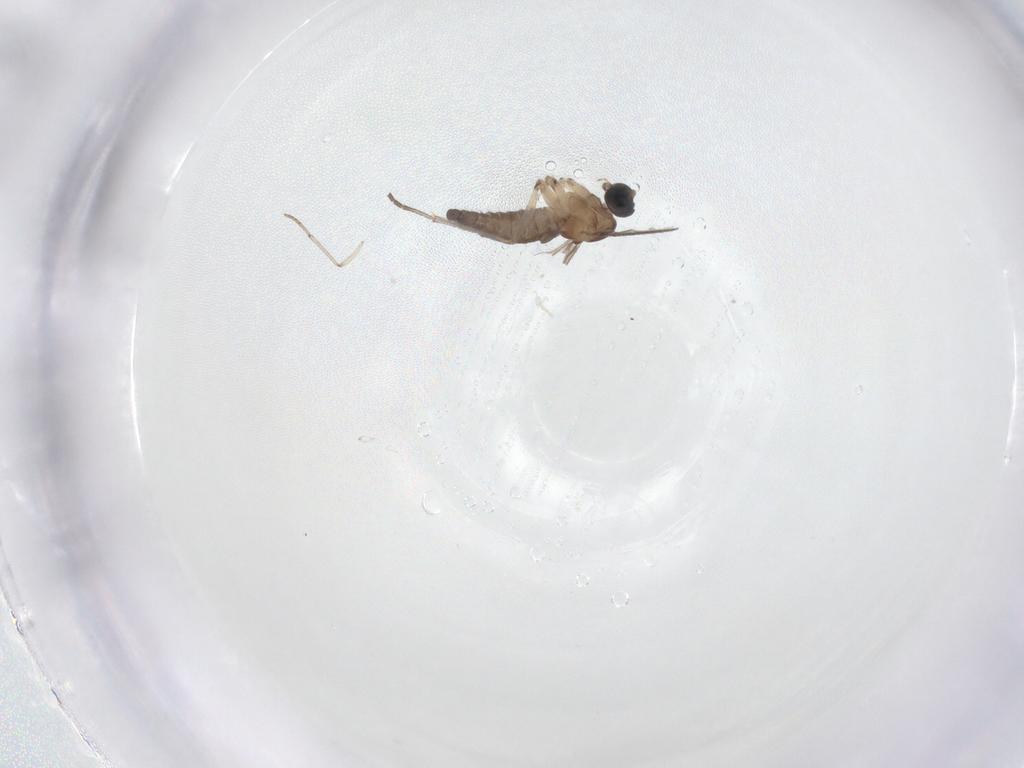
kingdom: Animalia
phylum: Arthropoda
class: Insecta
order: Diptera
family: Sciaridae
